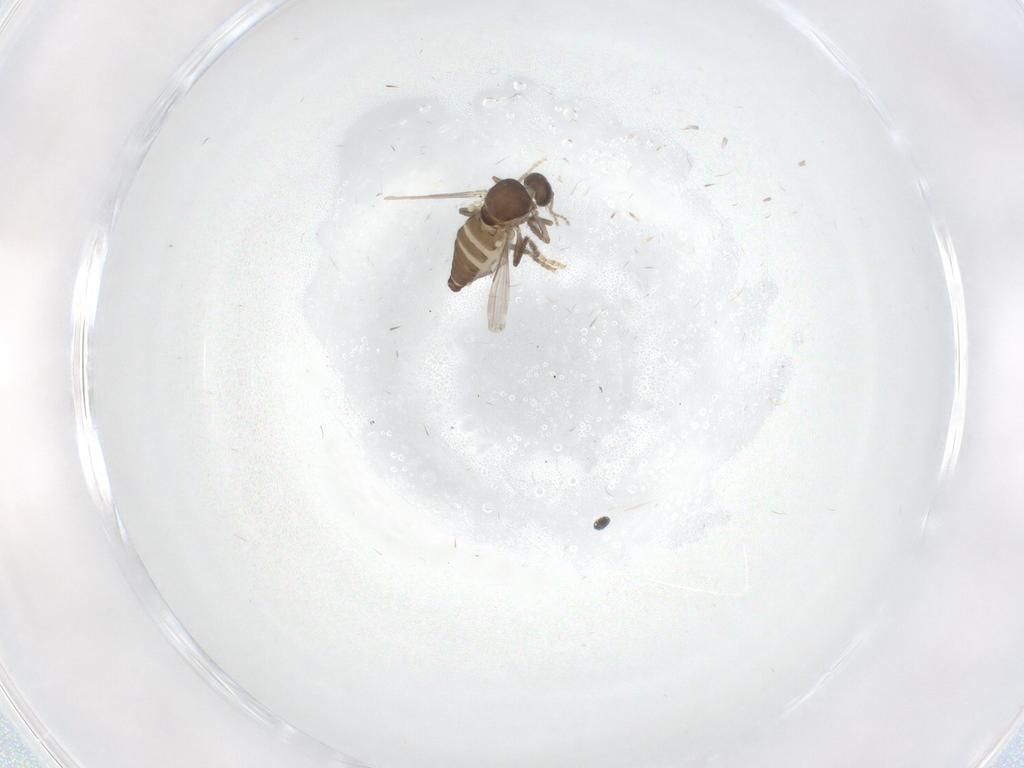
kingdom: Animalia
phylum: Arthropoda
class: Insecta
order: Diptera
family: Ceratopogonidae
